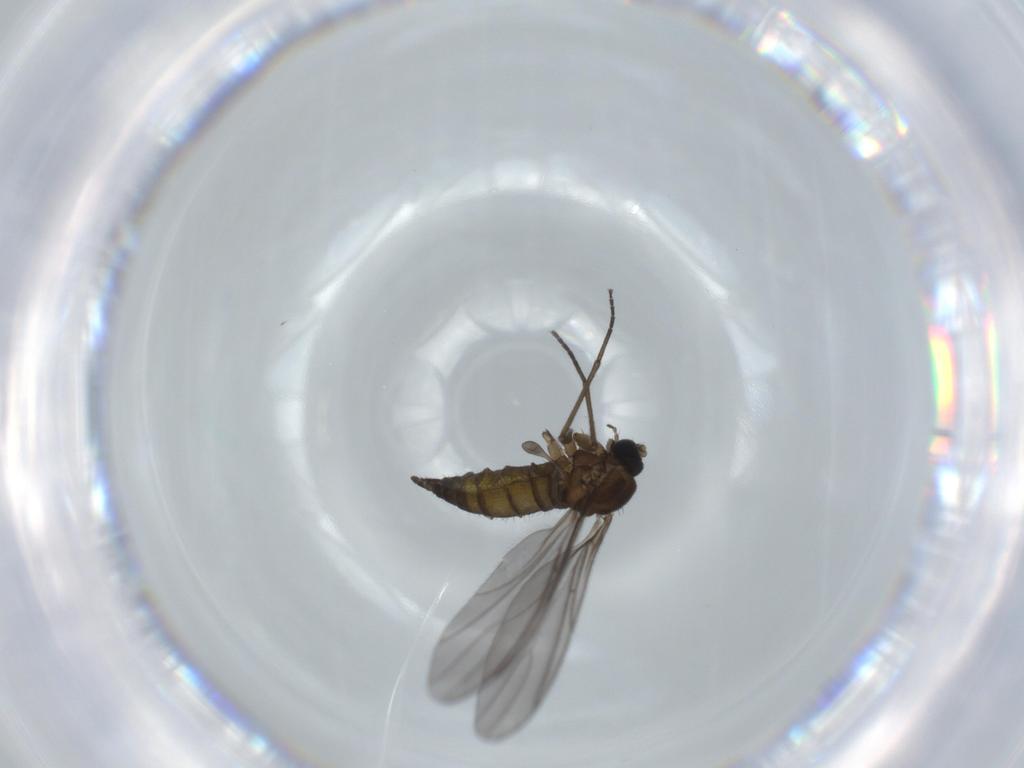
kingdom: Animalia
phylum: Arthropoda
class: Insecta
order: Diptera
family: Sciaridae
